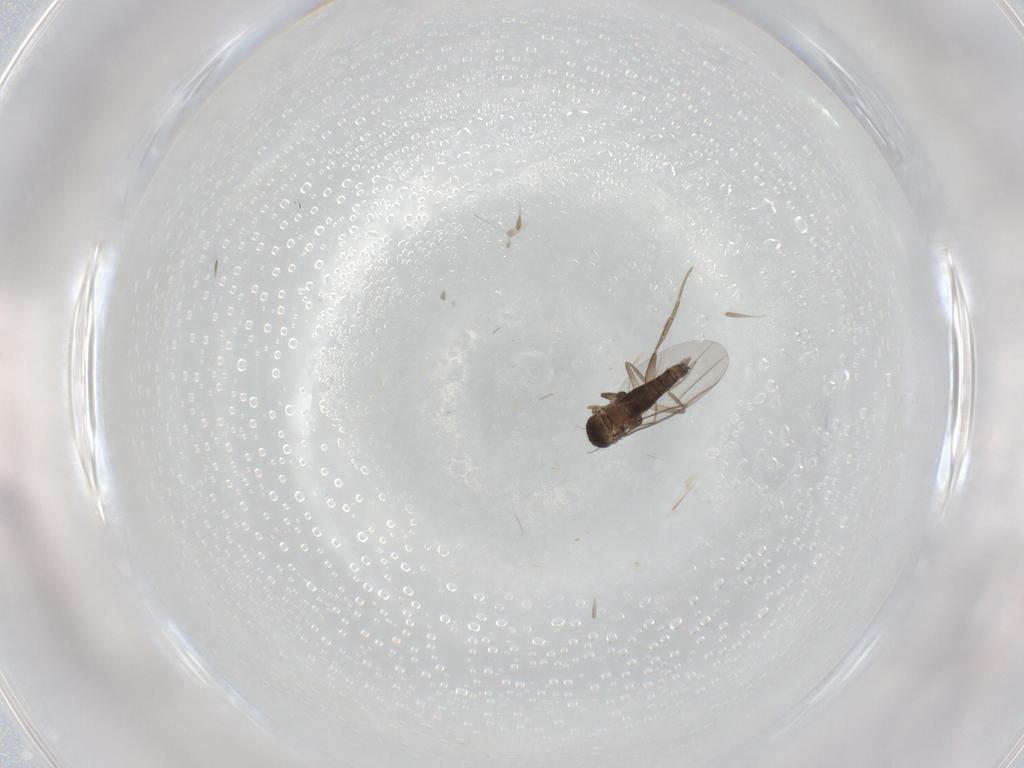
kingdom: Animalia
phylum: Arthropoda
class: Insecta
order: Diptera
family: Phoridae
